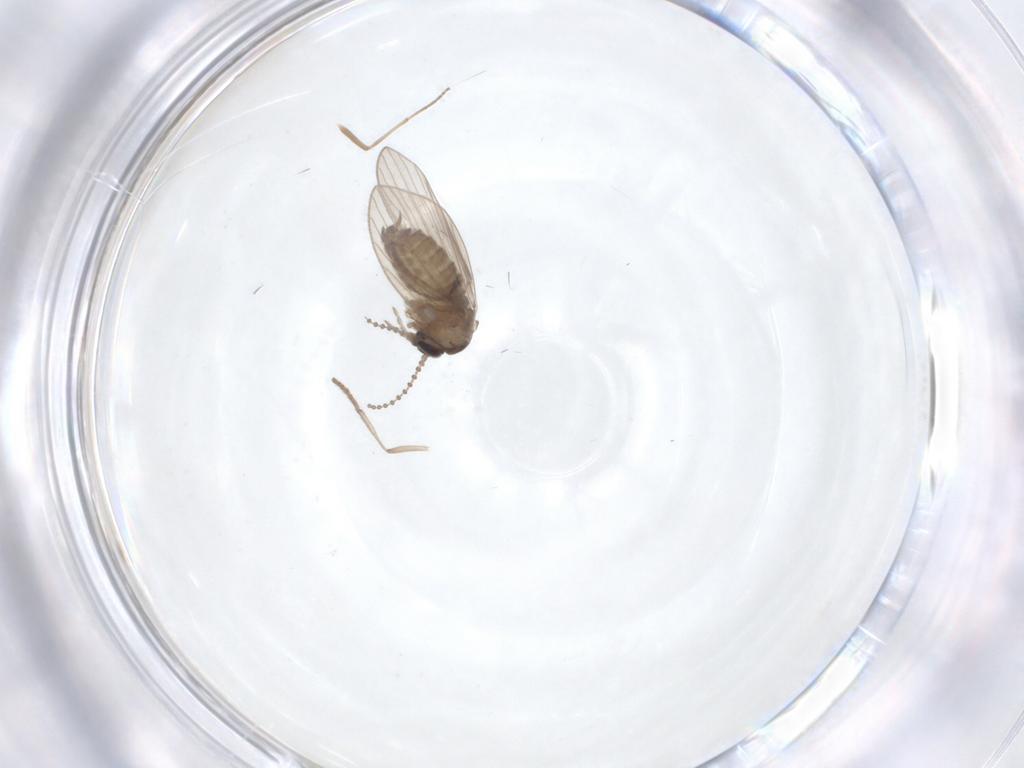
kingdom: Animalia
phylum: Arthropoda
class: Insecta
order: Diptera
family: Psychodidae
